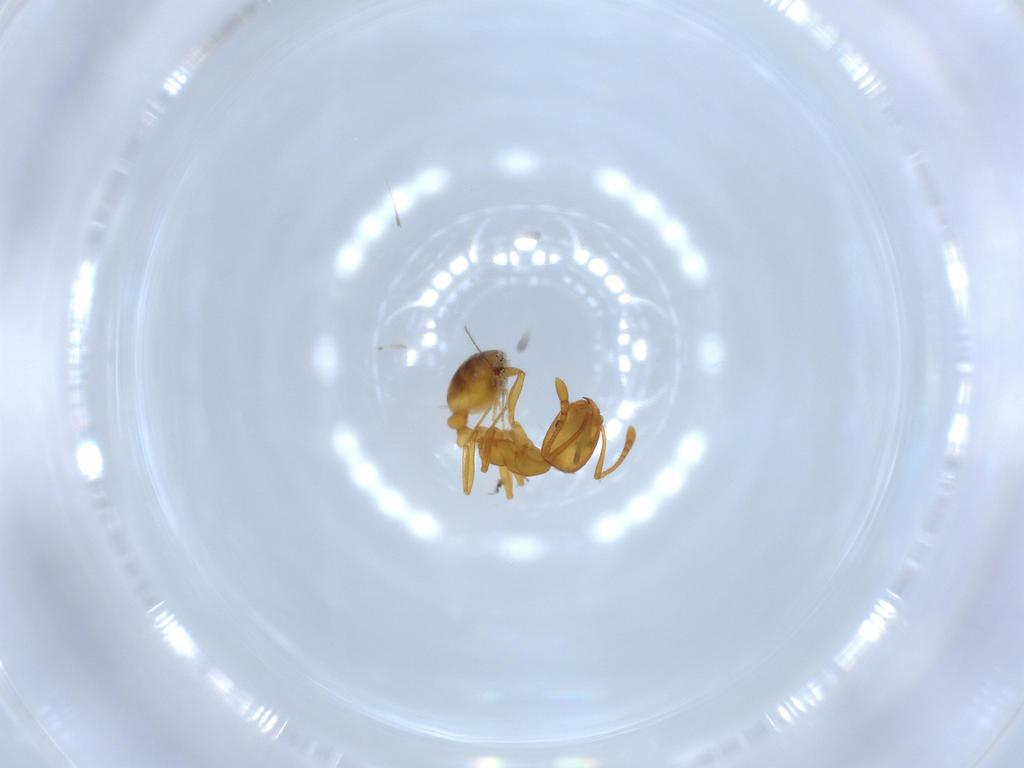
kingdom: Animalia
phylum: Arthropoda
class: Insecta
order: Hymenoptera
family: Formicidae
